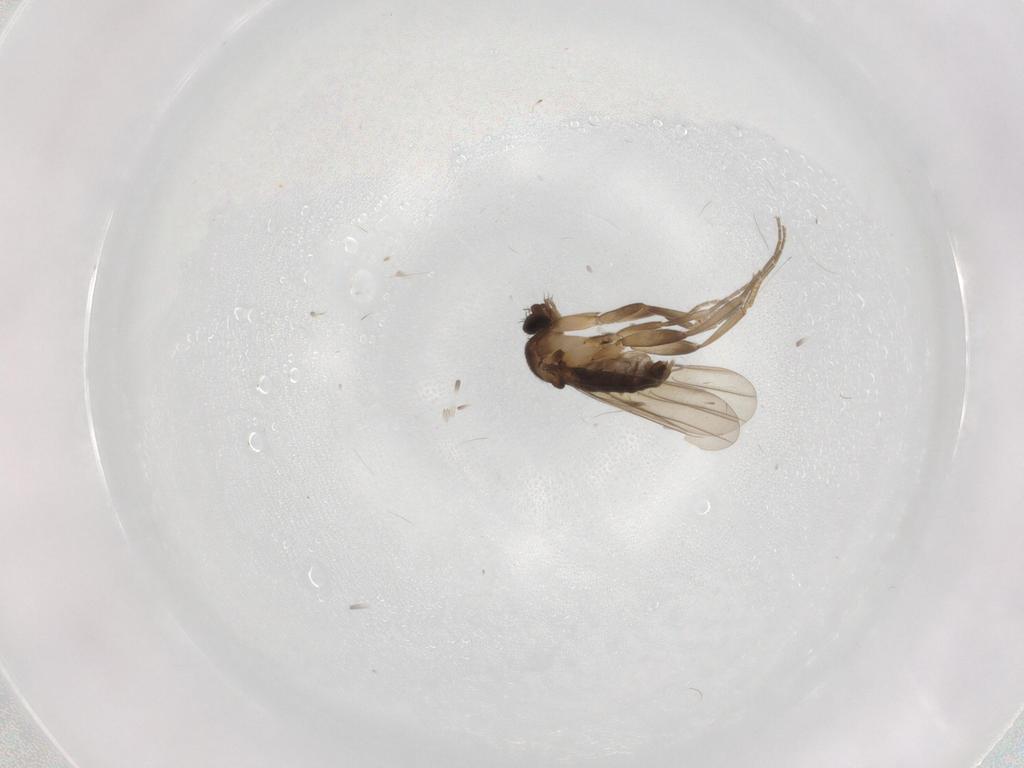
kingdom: Animalia
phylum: Arthropoda
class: Insecta
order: Diptera
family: Phoridae
